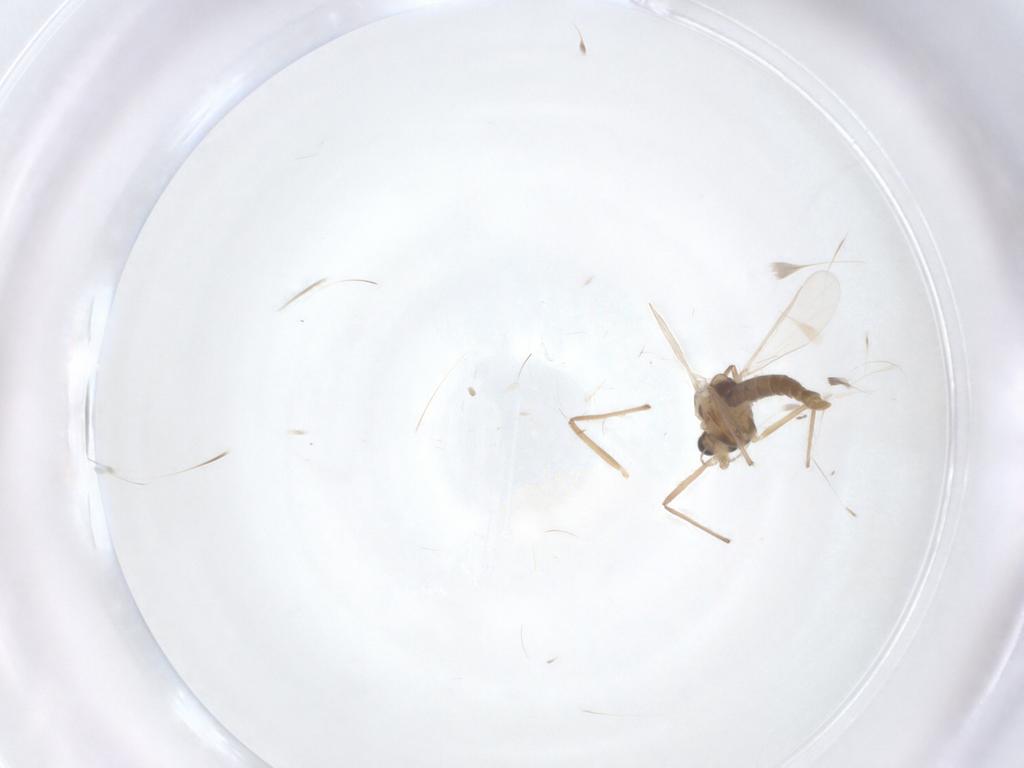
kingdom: Animalia
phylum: Arthropoda
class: Insecta
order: Diptera
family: Chironomidae
